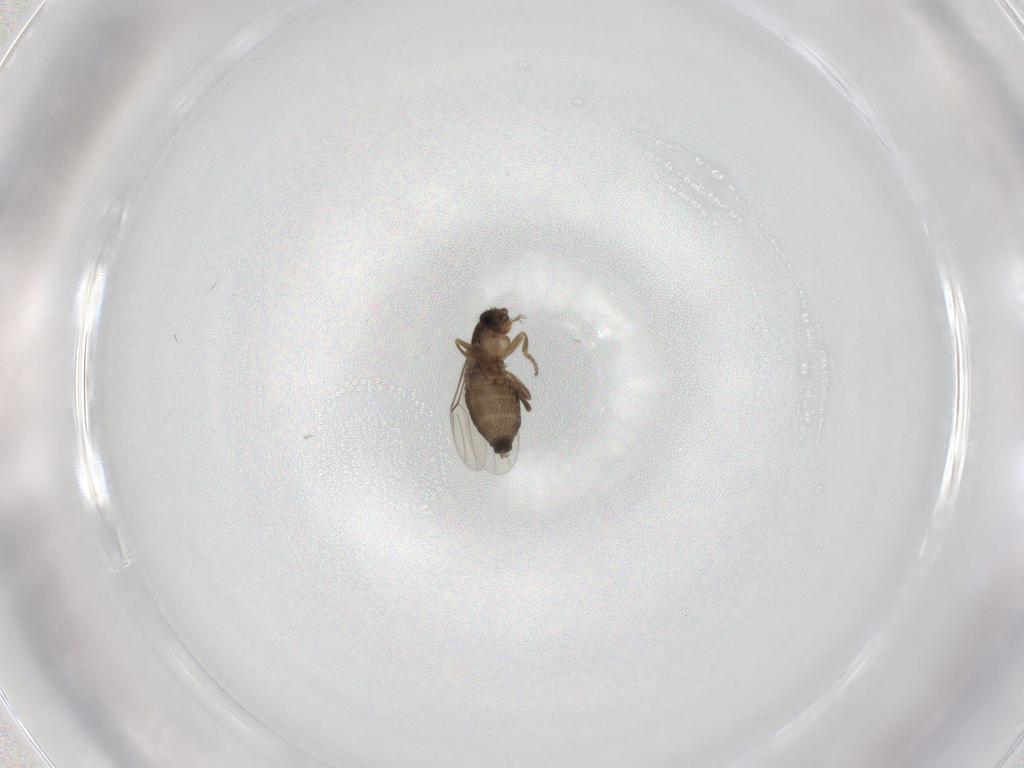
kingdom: Animalia
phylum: Arthropoda
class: Insecta
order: Diptera
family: Phoridae
